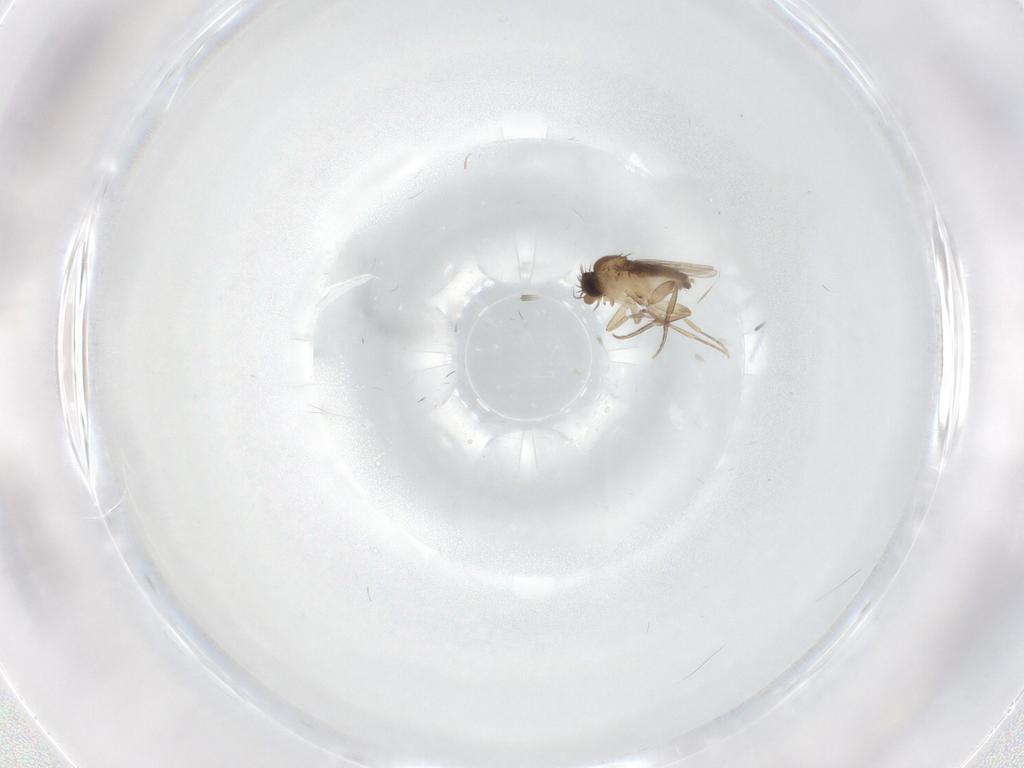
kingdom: Animalia
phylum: Arthropoda
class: Insecta
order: Diptera
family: Phoridae
